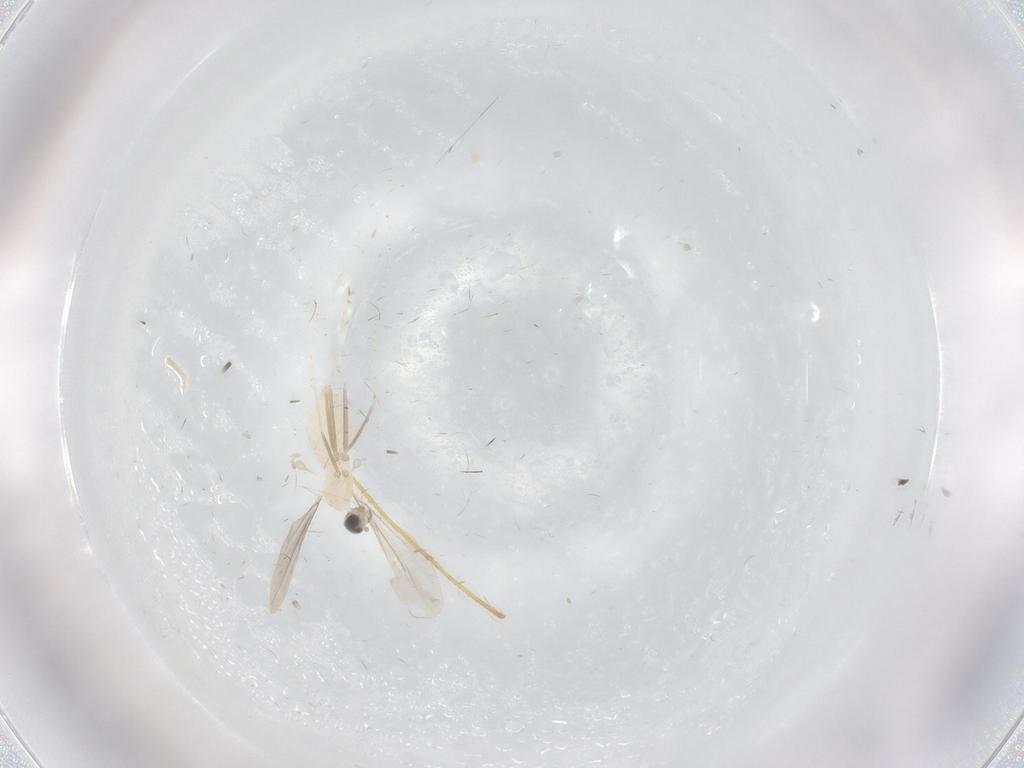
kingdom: Animalia
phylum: Arthropoda
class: Insecta
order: Diptera
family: Cecidomyiidae
